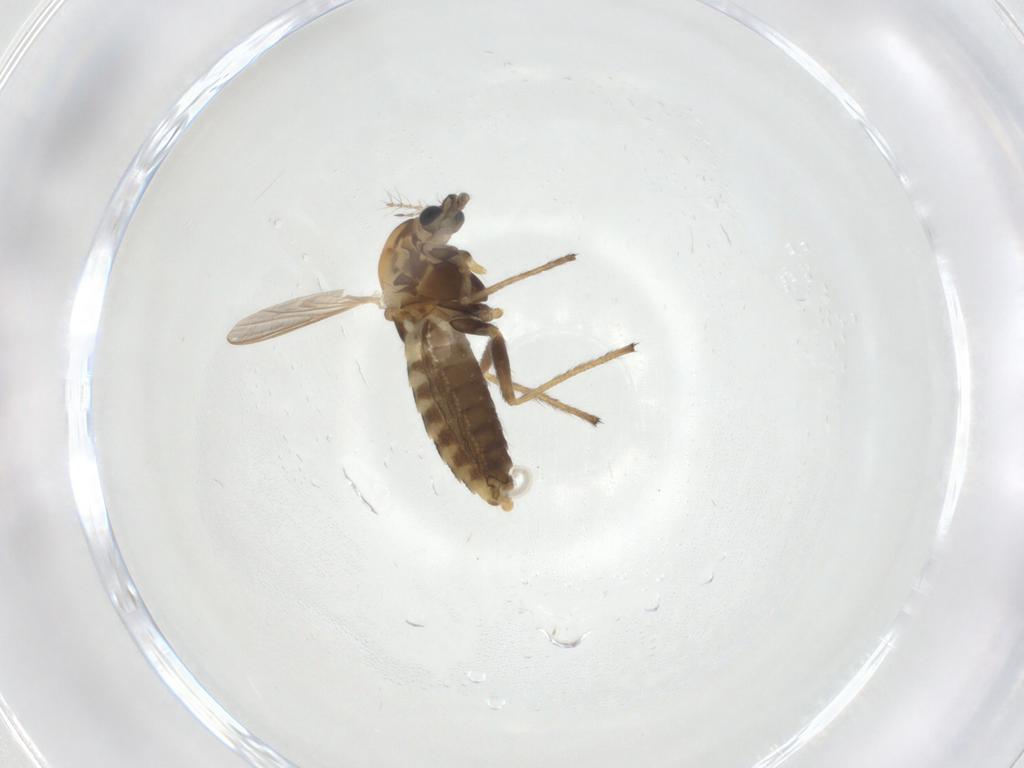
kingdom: Animalia
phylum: Arthropoda
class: Insecta
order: Diptera
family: Chironomidae
